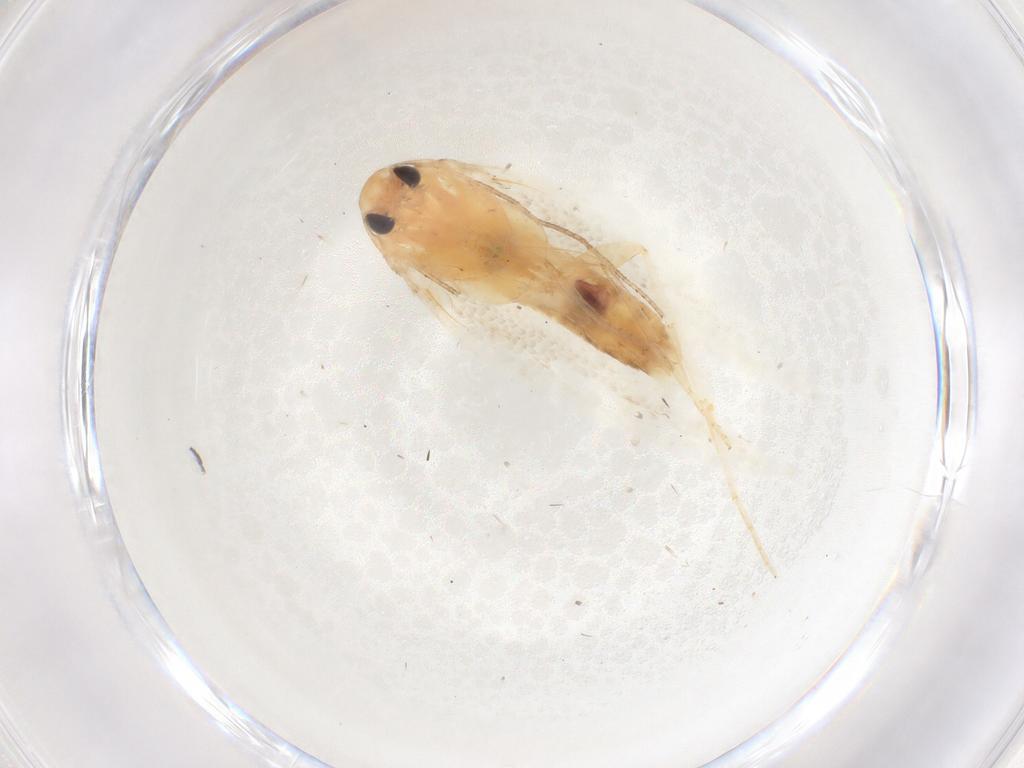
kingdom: Animalia
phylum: Arthropoda
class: Insecta
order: Lepidoptera
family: Cosmopterigidae
